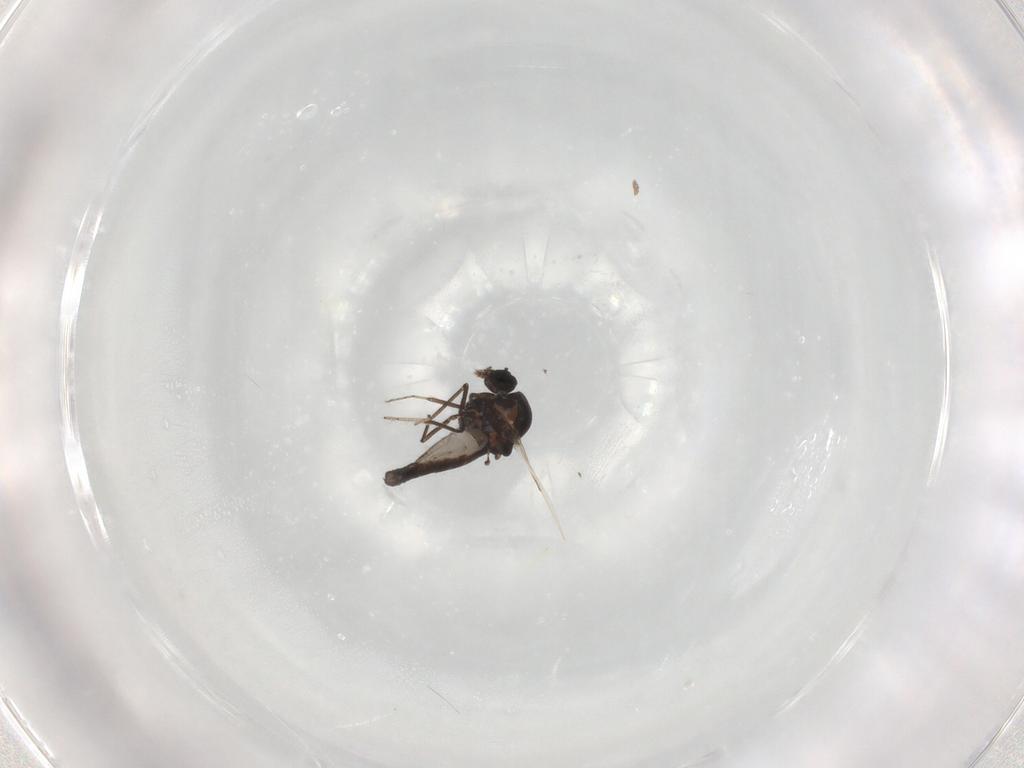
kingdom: Animalia
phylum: Arthropoda
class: Insecta
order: Diptera
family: Ceratopogonidae
